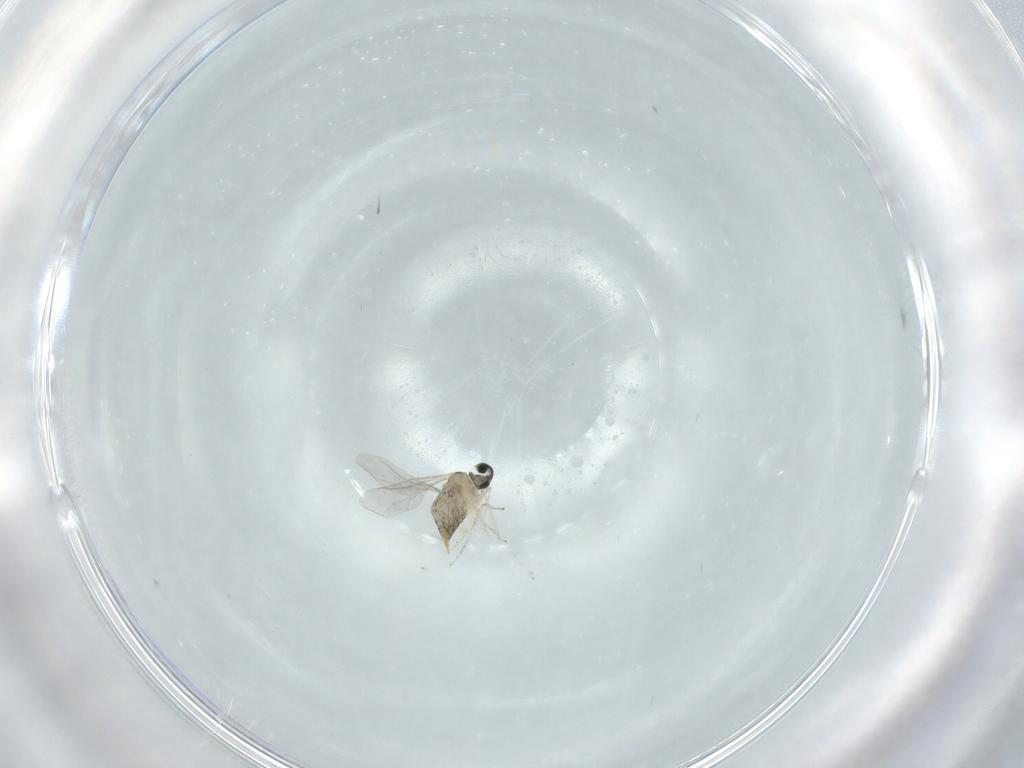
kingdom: Animalia
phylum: Arthropoda
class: Insecta
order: Diptera
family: Cecidomyiidae
